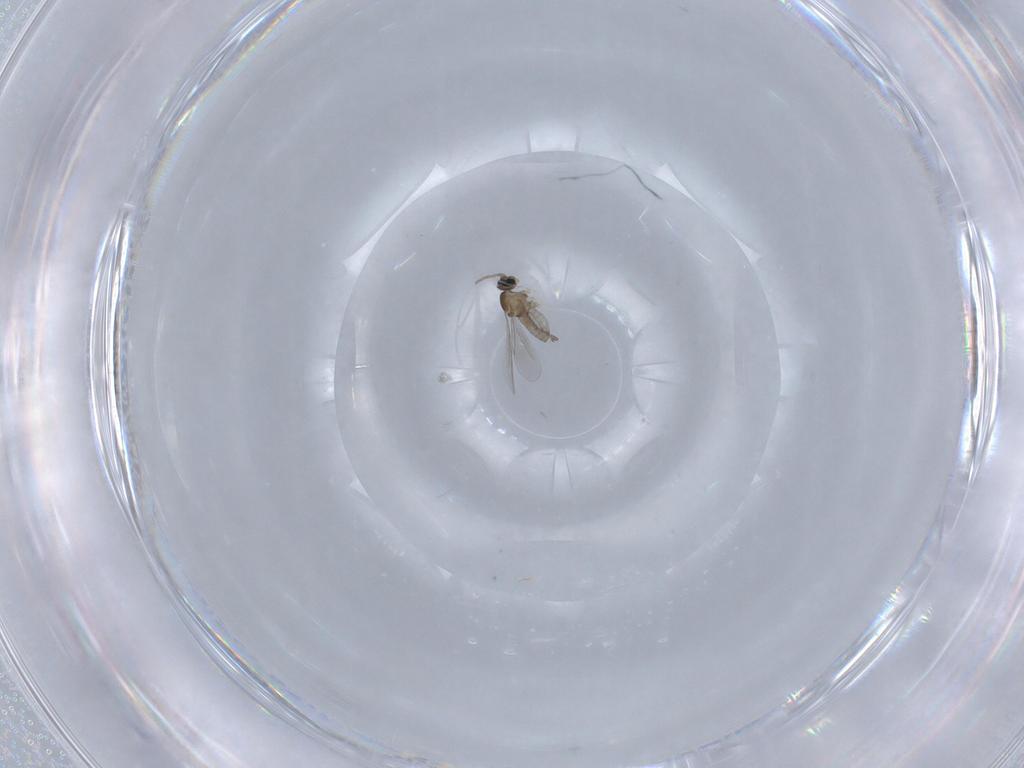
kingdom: Animalia
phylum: Arthropoda
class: Insecta
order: Diptera
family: Cecidomyiidae
